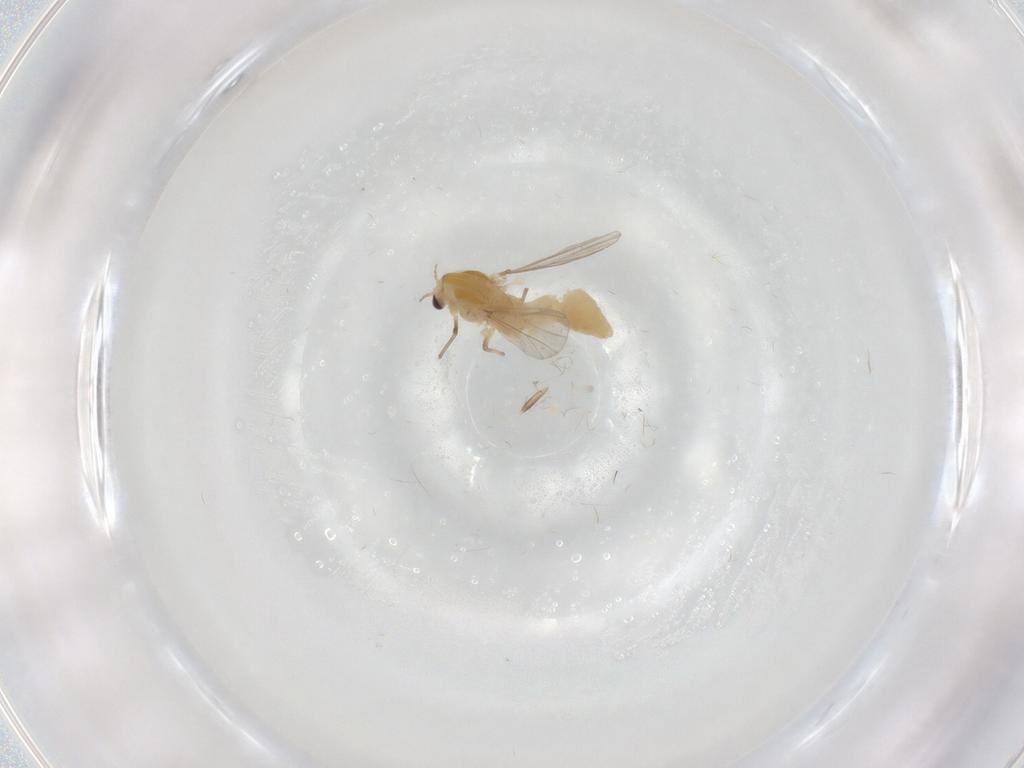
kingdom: Animalia
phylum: Arthropoda
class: Insecta
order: Diptera
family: Chironomidae
